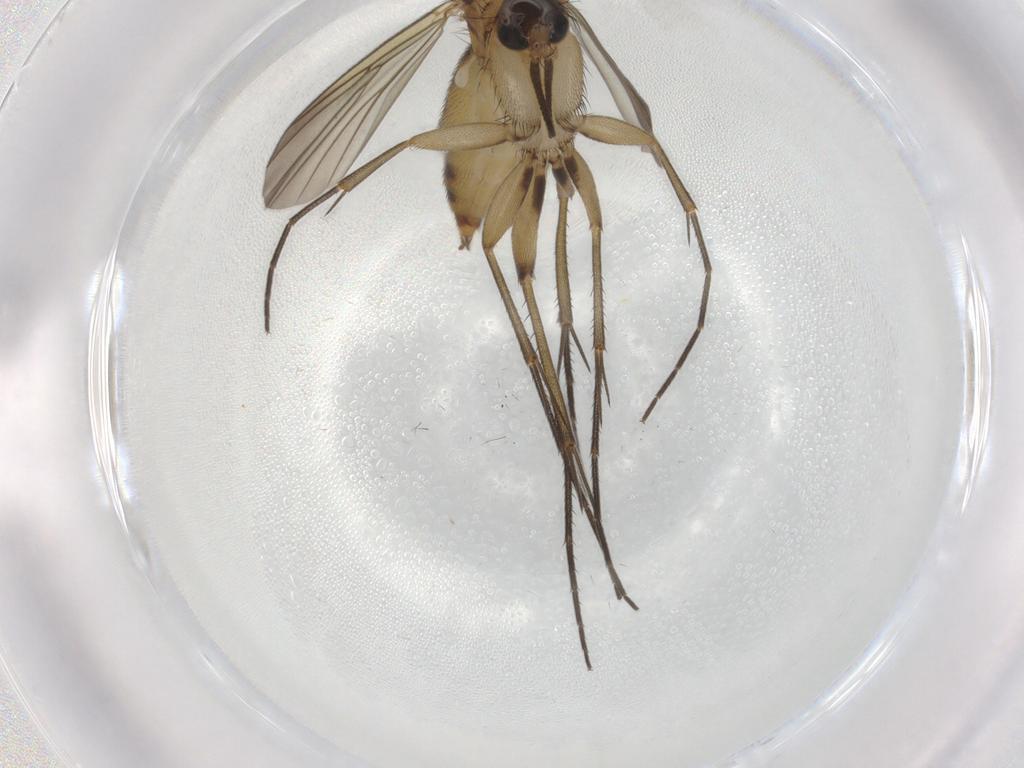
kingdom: Animalia
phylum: Arthropoda
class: Insecta
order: Diptera
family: Mycetophilidae
